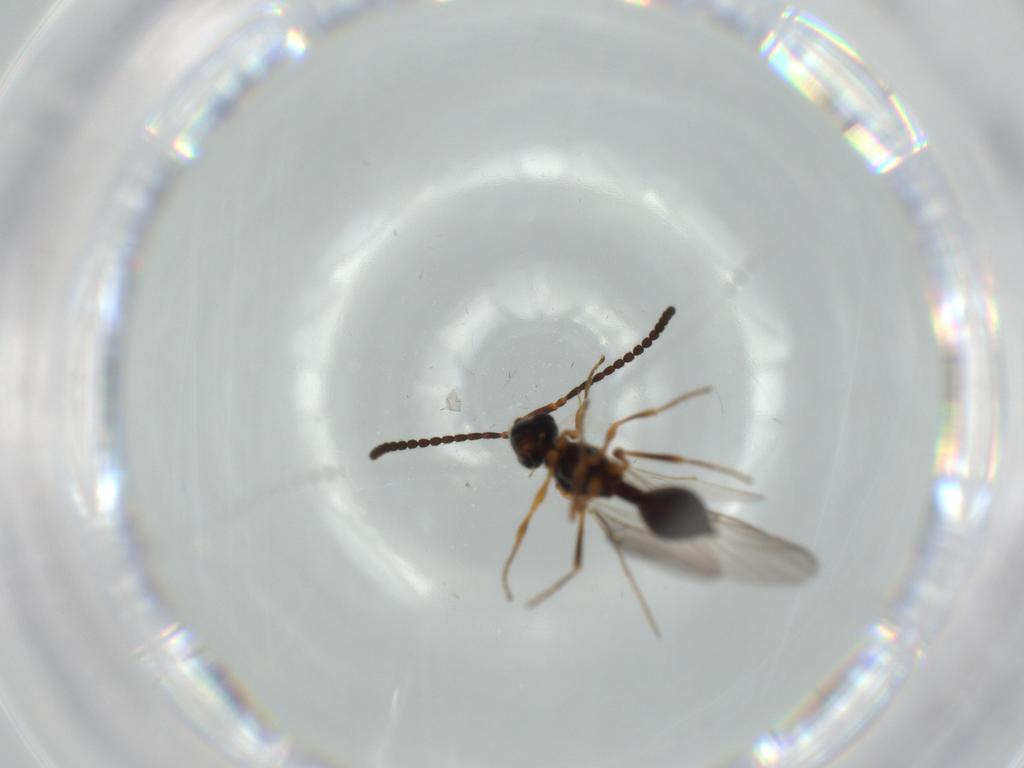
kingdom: Animalia
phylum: Arthropoda
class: Insecta
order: Hymenoptera
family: Diapriidae
